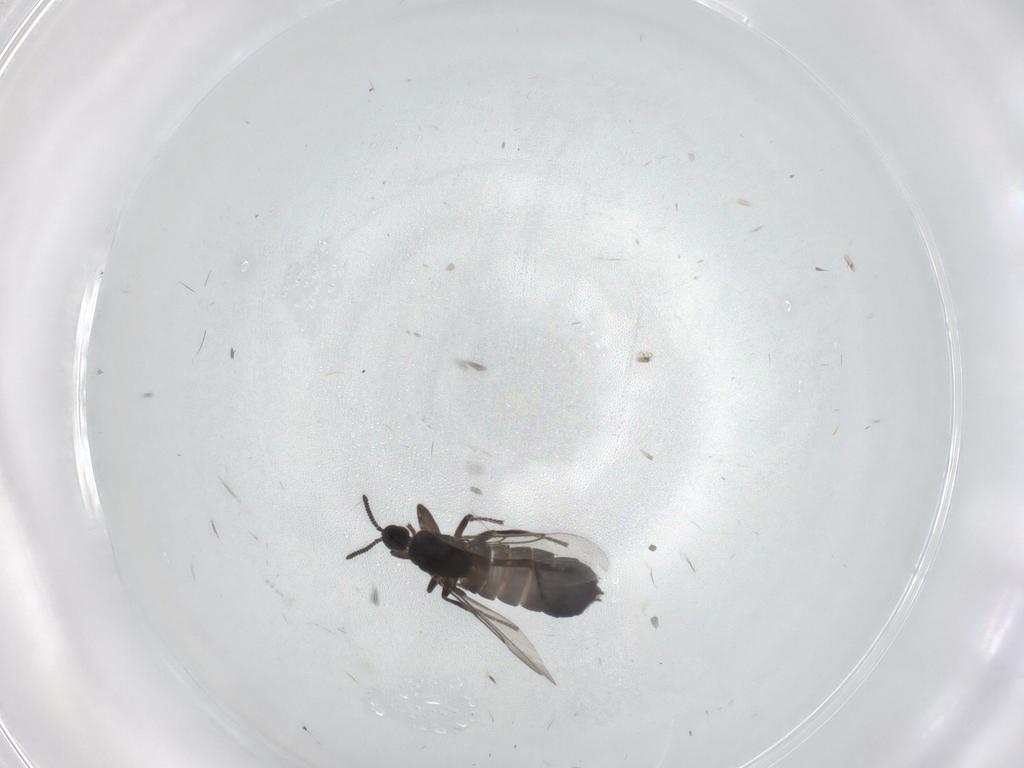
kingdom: Animalia
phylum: Arthropoda
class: Insecta
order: Diptera
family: Scatopsidae
